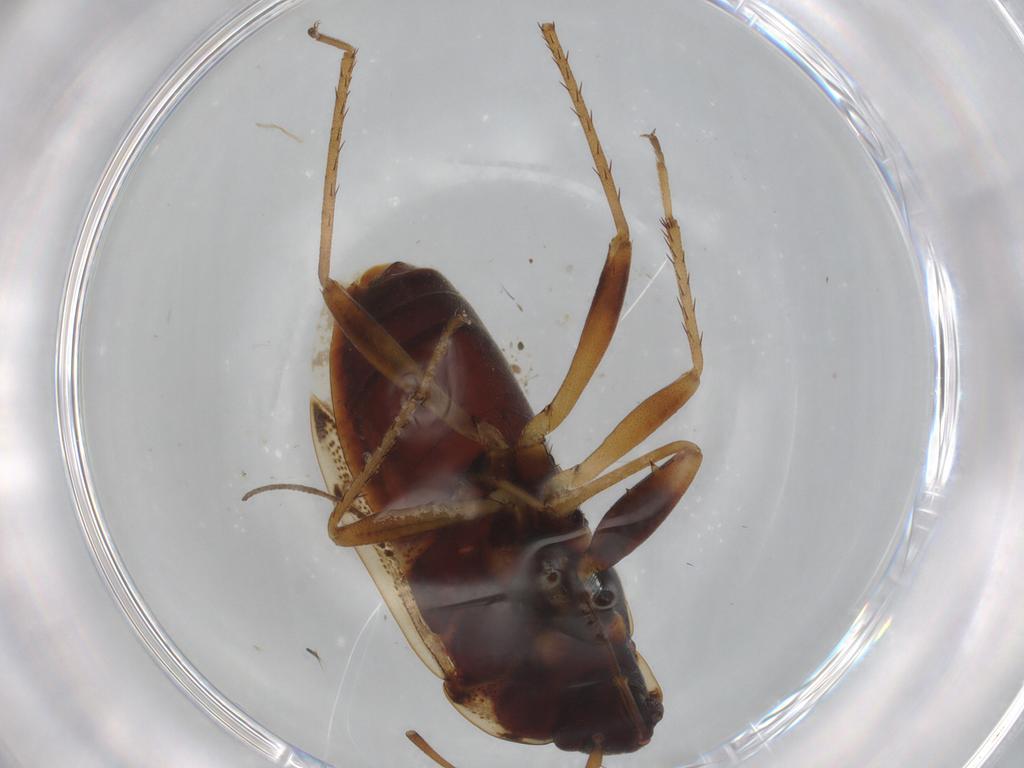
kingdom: Animalia
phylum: Arthropoda
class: Insecta
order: Hemiptera
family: Rhyparochromidae
